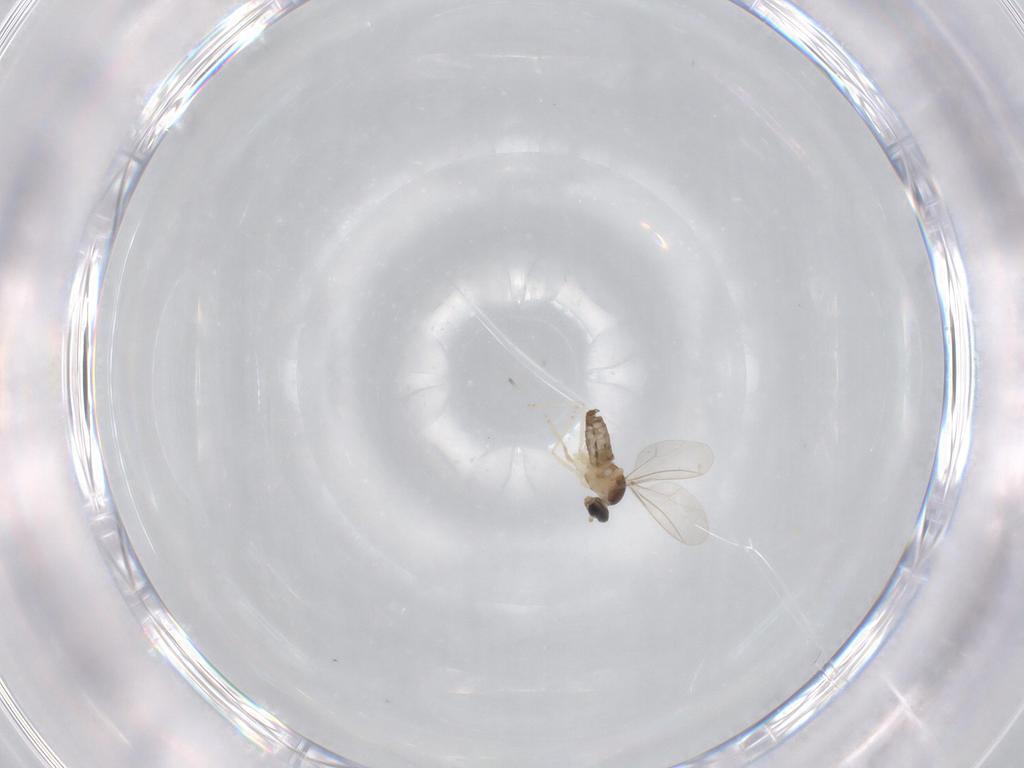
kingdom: Animalia
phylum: Arthropoda
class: Insecta
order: Diptera
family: Cecidomyiidae
